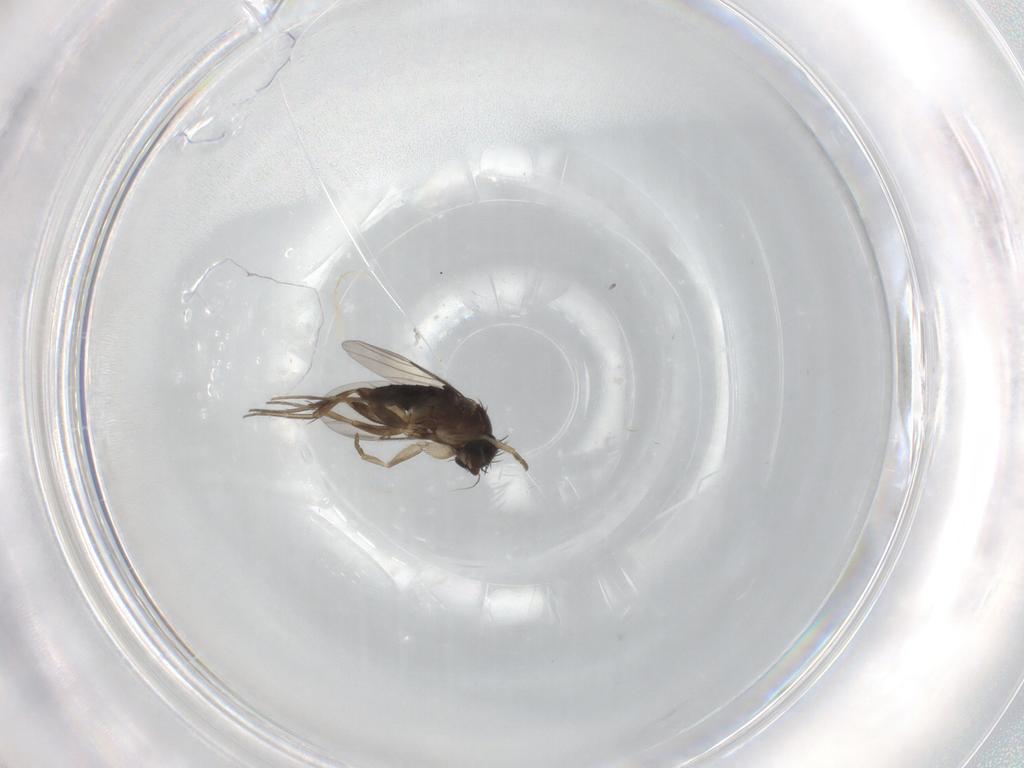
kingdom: Animalia
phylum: Arthropoda
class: Insecta
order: Diptera
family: Phoridae
